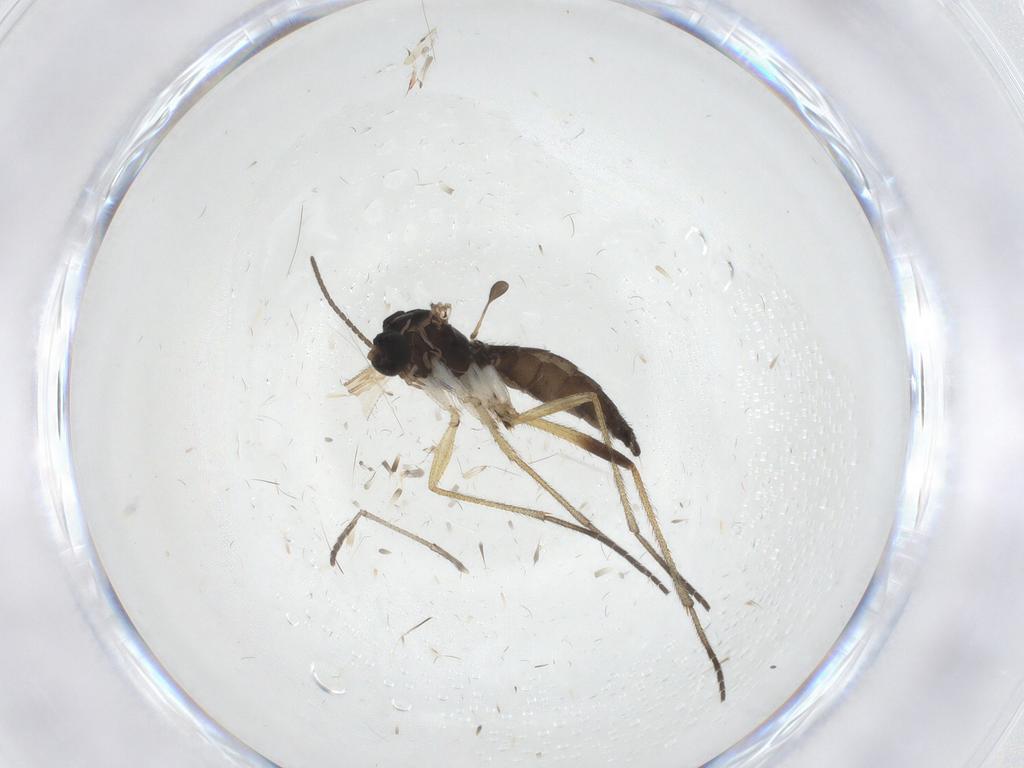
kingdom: Animalia
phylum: Arthropoda
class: Insecta
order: Diptera
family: Sciaridae
